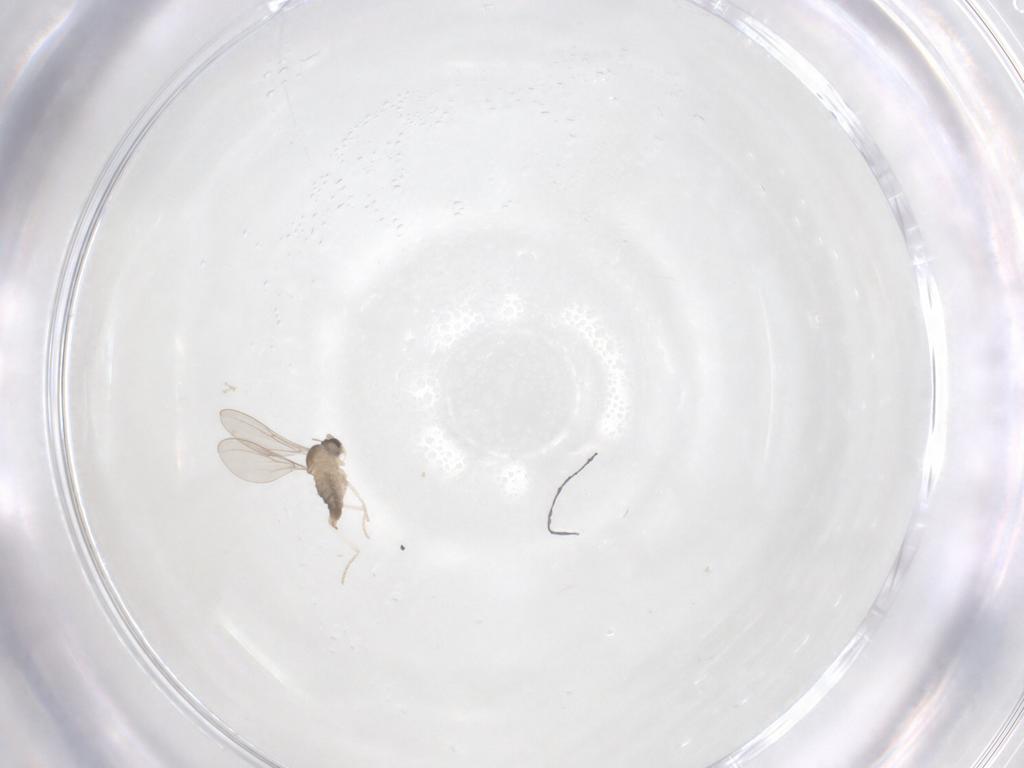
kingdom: Animalia
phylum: Arthropoda
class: Insecta
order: Diptera
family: Cecidomyiidae
